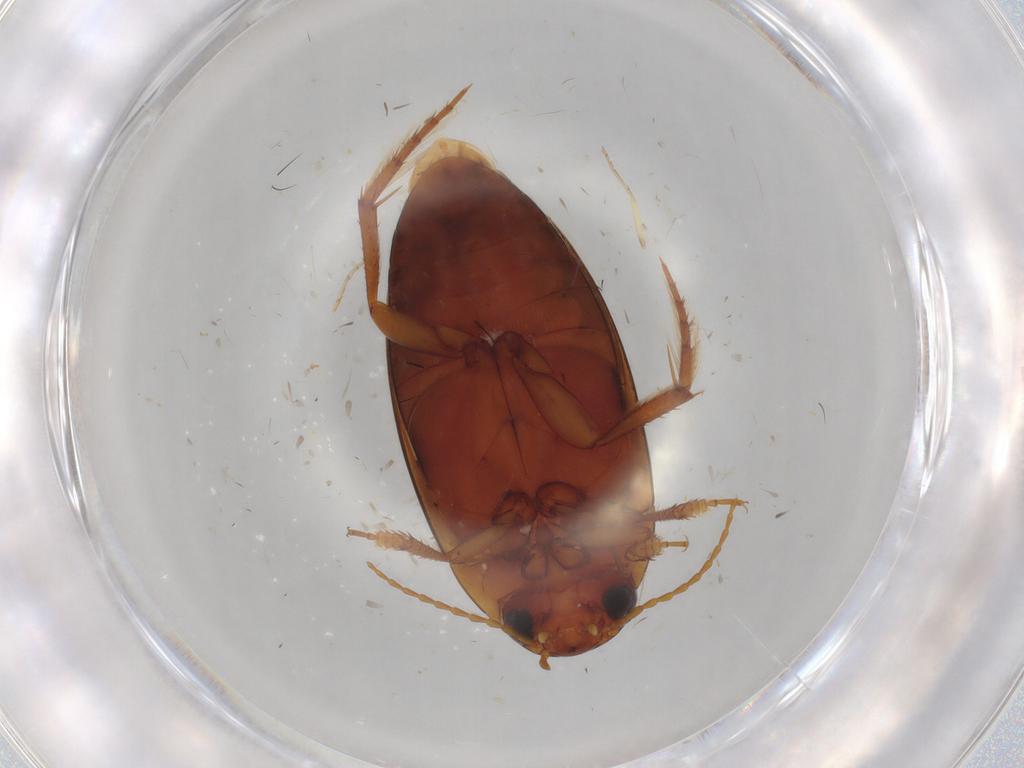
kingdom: Animalia
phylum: Arthropoda
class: Insecta
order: Coleoptera
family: Dytiscidae
